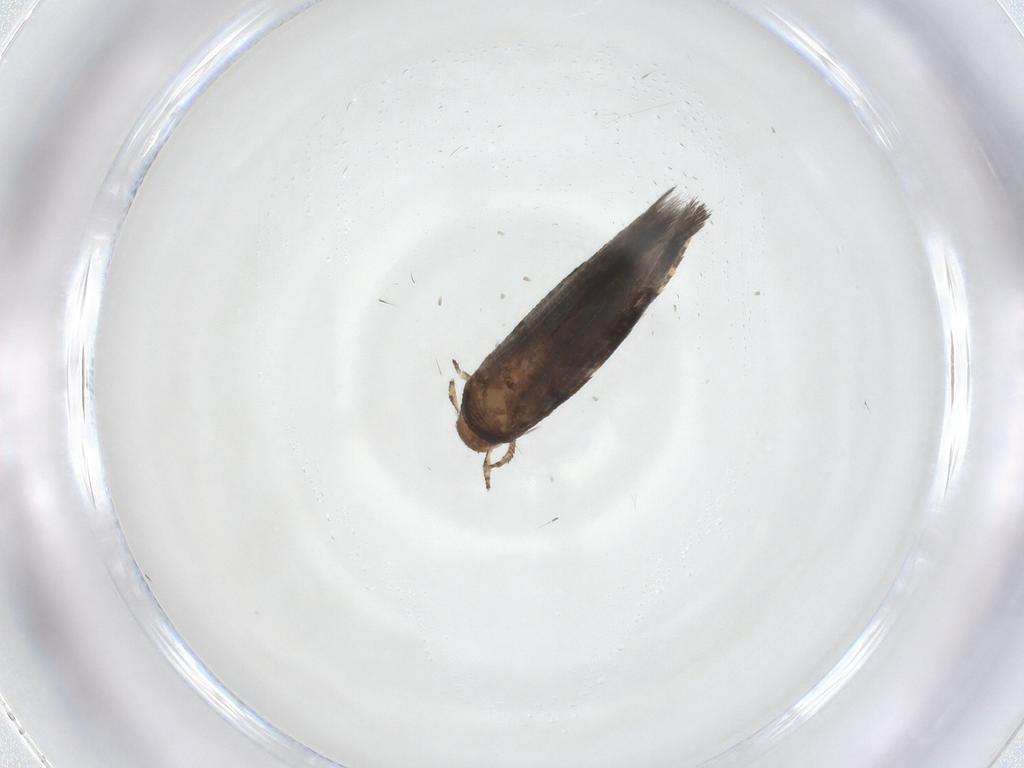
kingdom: Animalia
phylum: Arthropoda
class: Insecta
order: Lepidoptera
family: Momphidae
